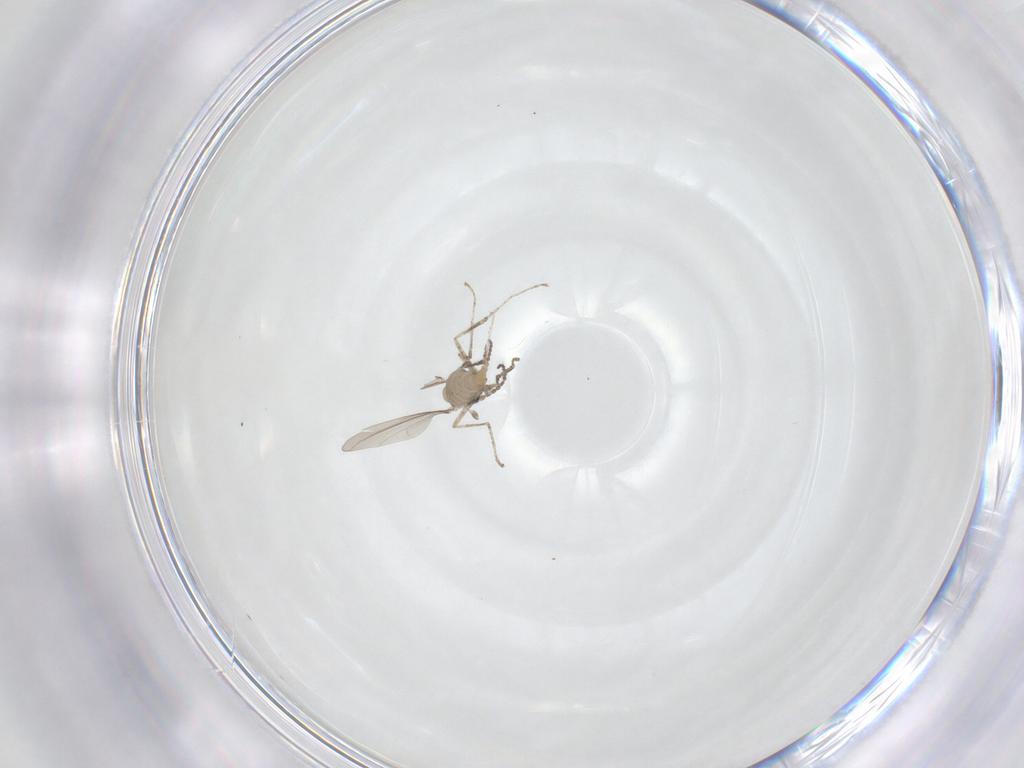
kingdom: Animalia
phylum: Arthropoda
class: Insecta
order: Diptera
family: Cecidomyiidae
